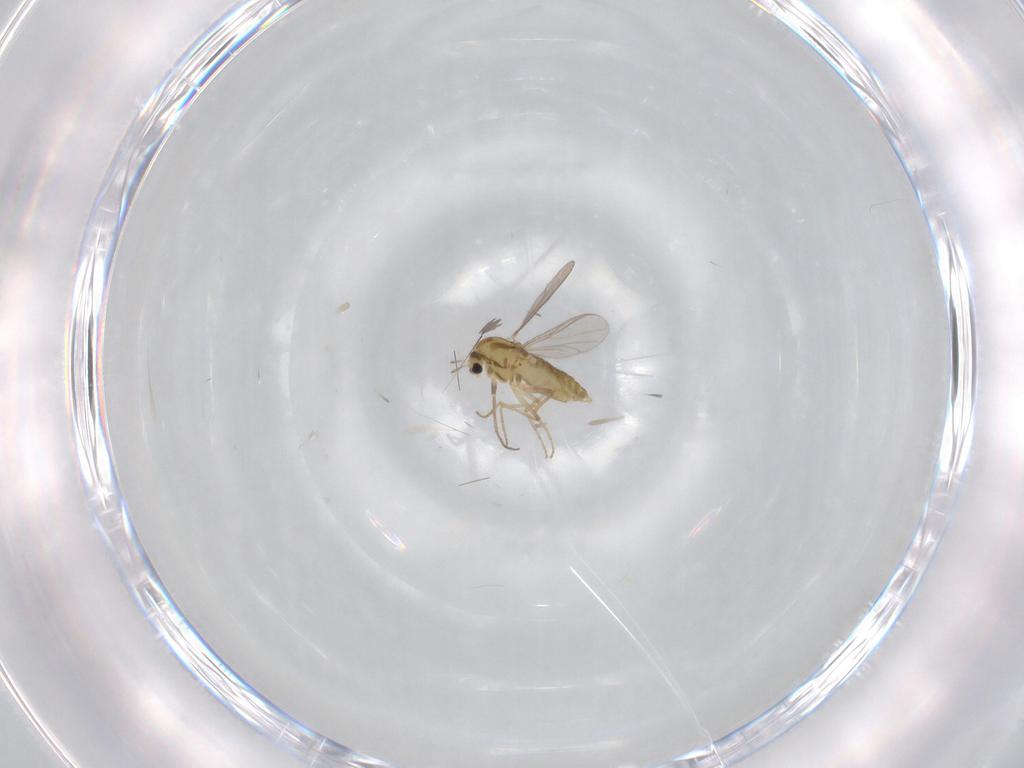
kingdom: Animalia
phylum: Arthropoda
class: Insecta
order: Diptera
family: Chironomidae
